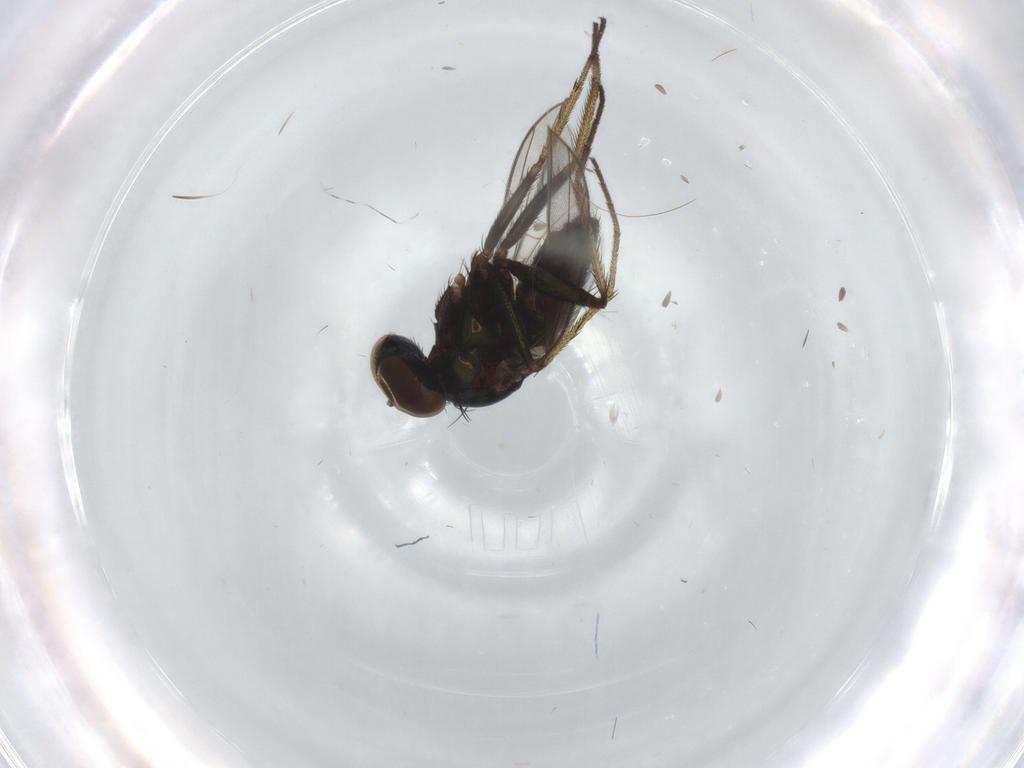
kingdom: Animalia
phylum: Arthropoda
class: Insecta
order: Diptera
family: Dolichopodidae
